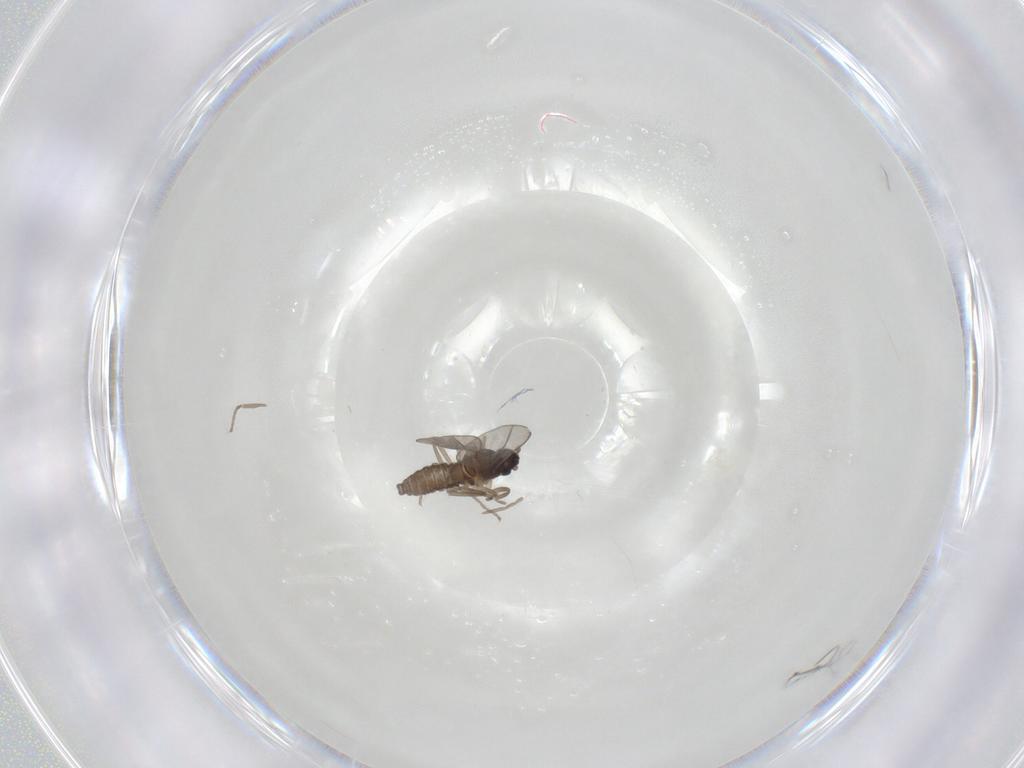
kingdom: Animalia
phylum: Arthropoda
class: Insecta
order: Diptera
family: Cecidomyiidae
